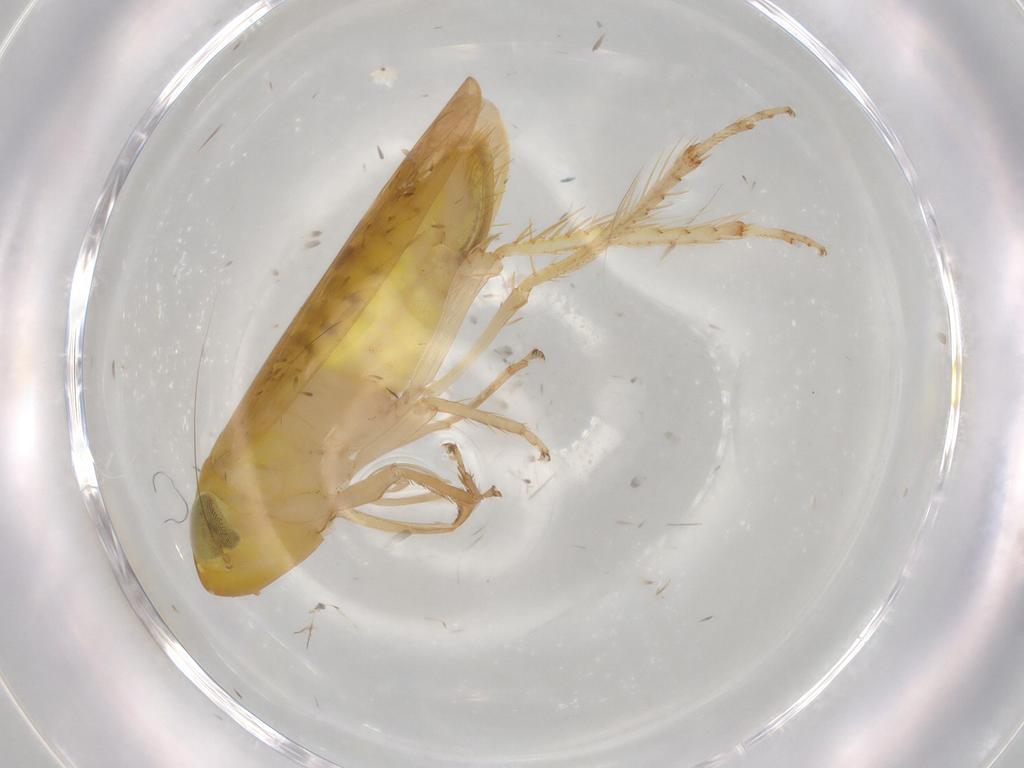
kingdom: Animalia
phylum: Arthropoda
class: Insecta
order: Hemiptera
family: Cicadellidae
